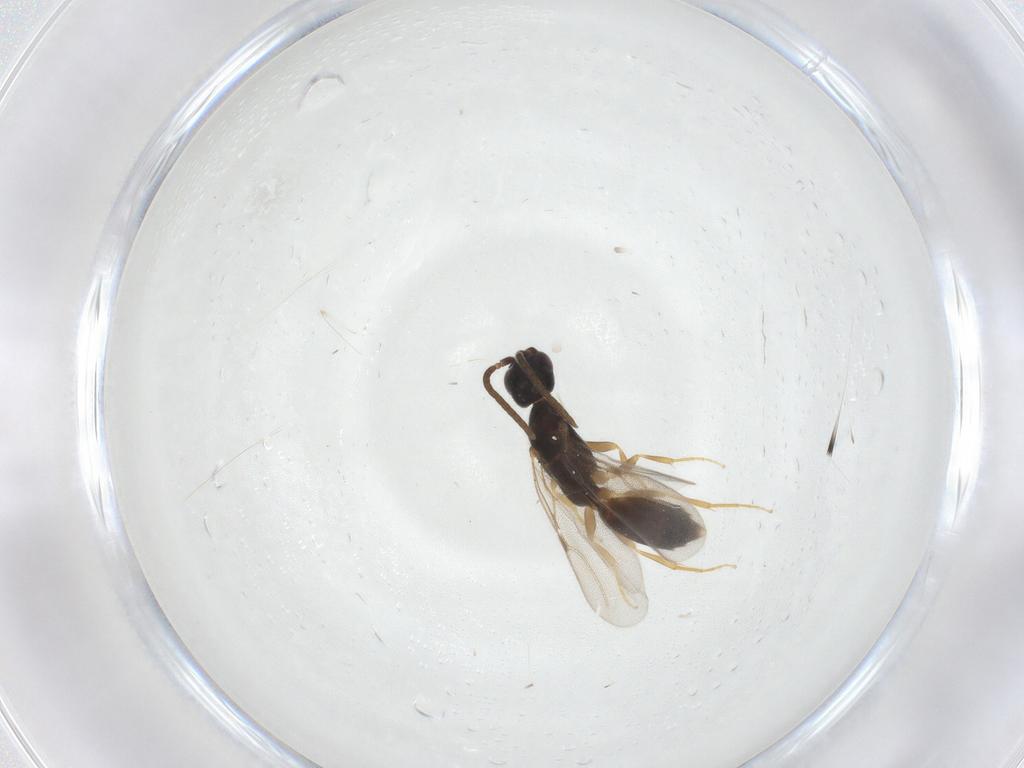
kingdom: Animalia
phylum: Arthropoda
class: Insecta
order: Hymenoptera
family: Bethylidae
